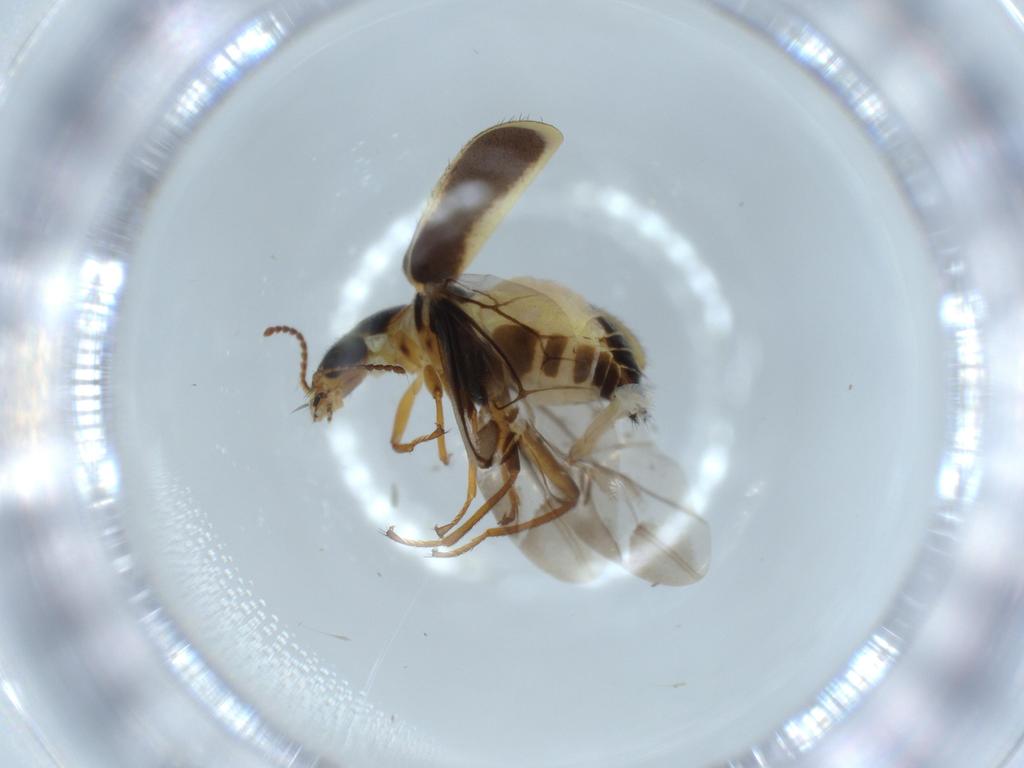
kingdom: Animalia
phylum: Arthropoda
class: Insecta
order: Coleoptera
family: Melyridae
